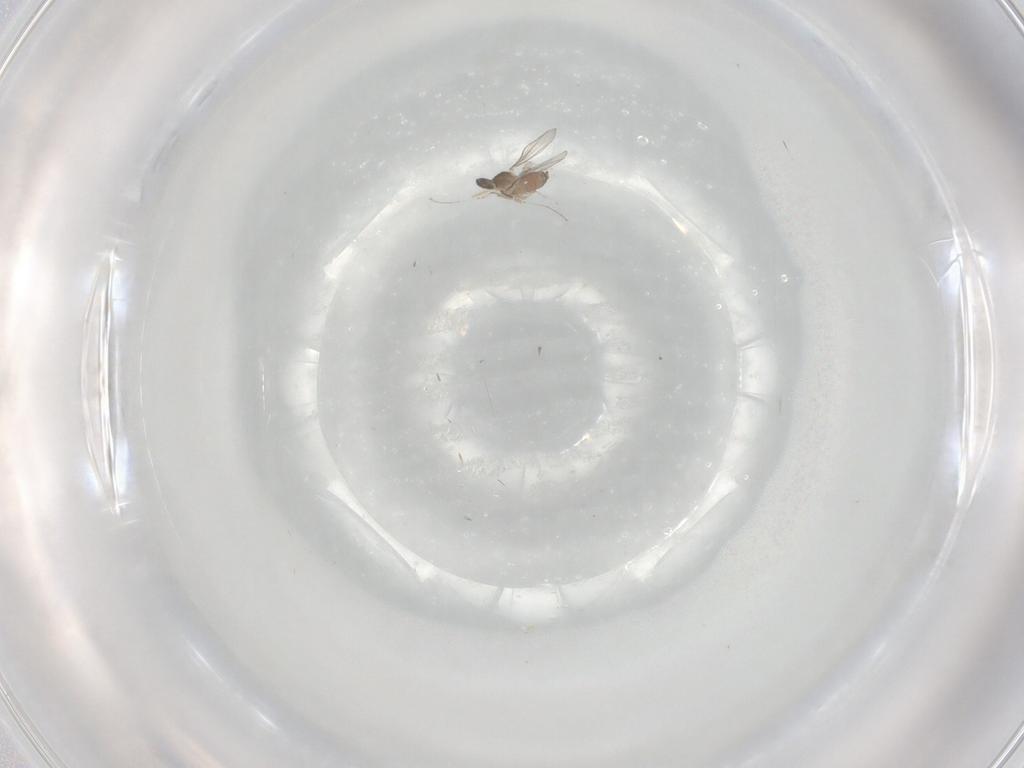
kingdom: Animalia
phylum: Arthropoda
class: Insecta
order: Diptera
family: Cecidomyiidae
